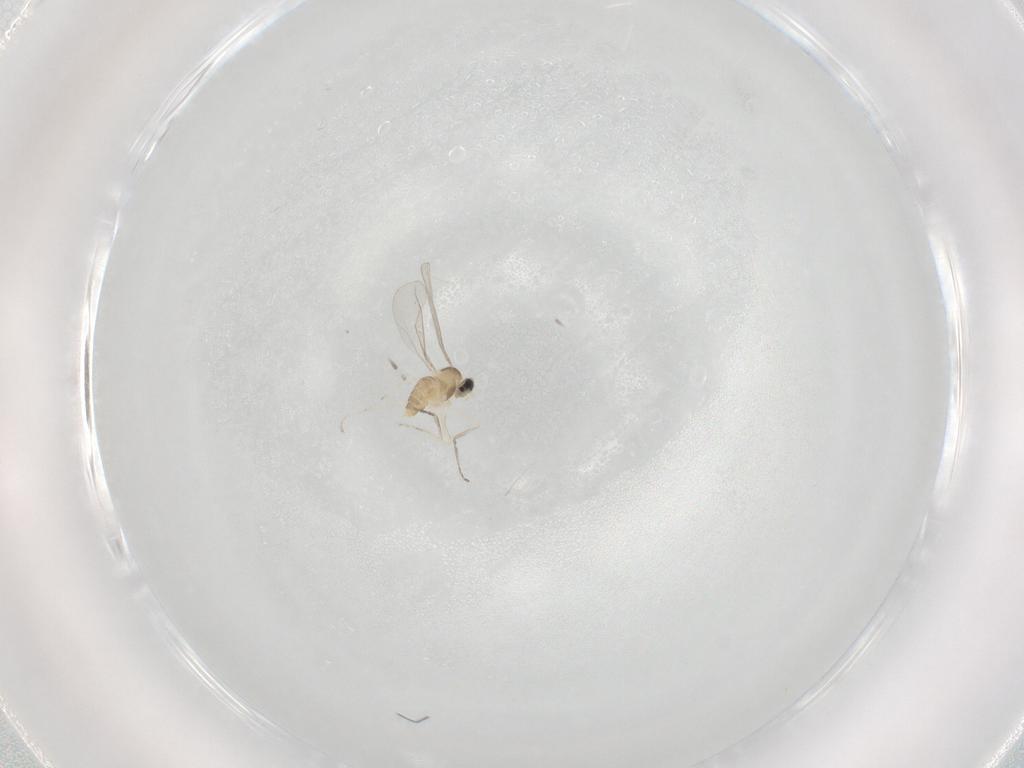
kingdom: Animalia
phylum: Arthropoda
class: Insecta
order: Diptera
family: Cecidomyiidae
